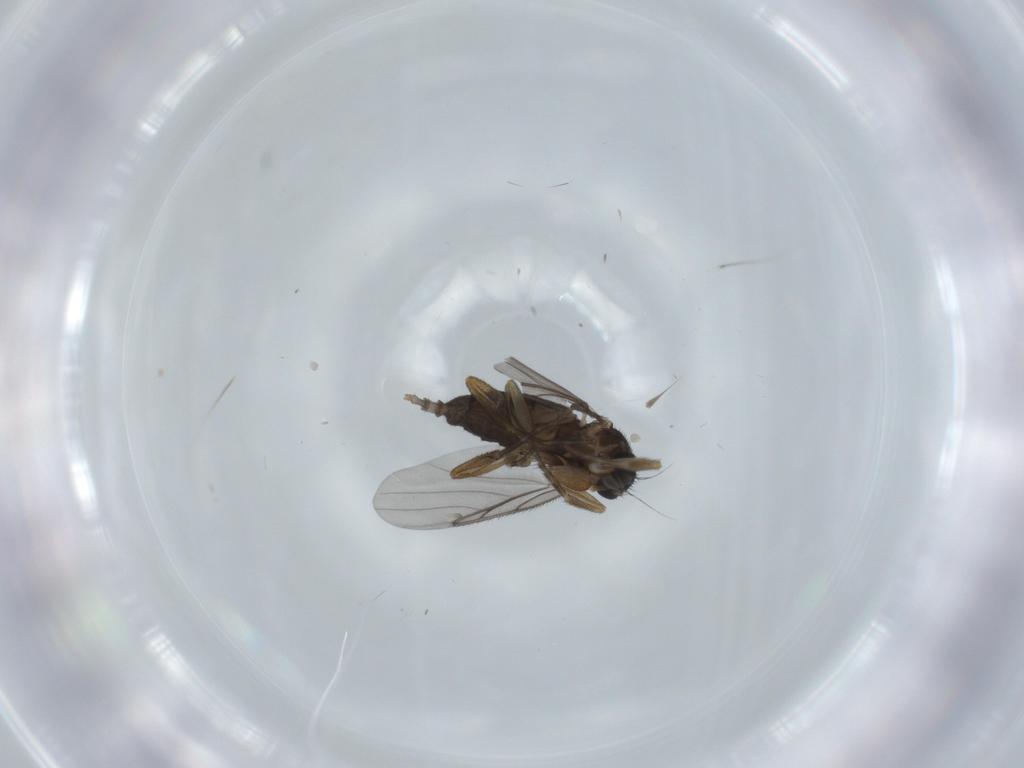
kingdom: Animalia
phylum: Arthropoda
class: Insecta
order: Diptera
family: Phoridae
